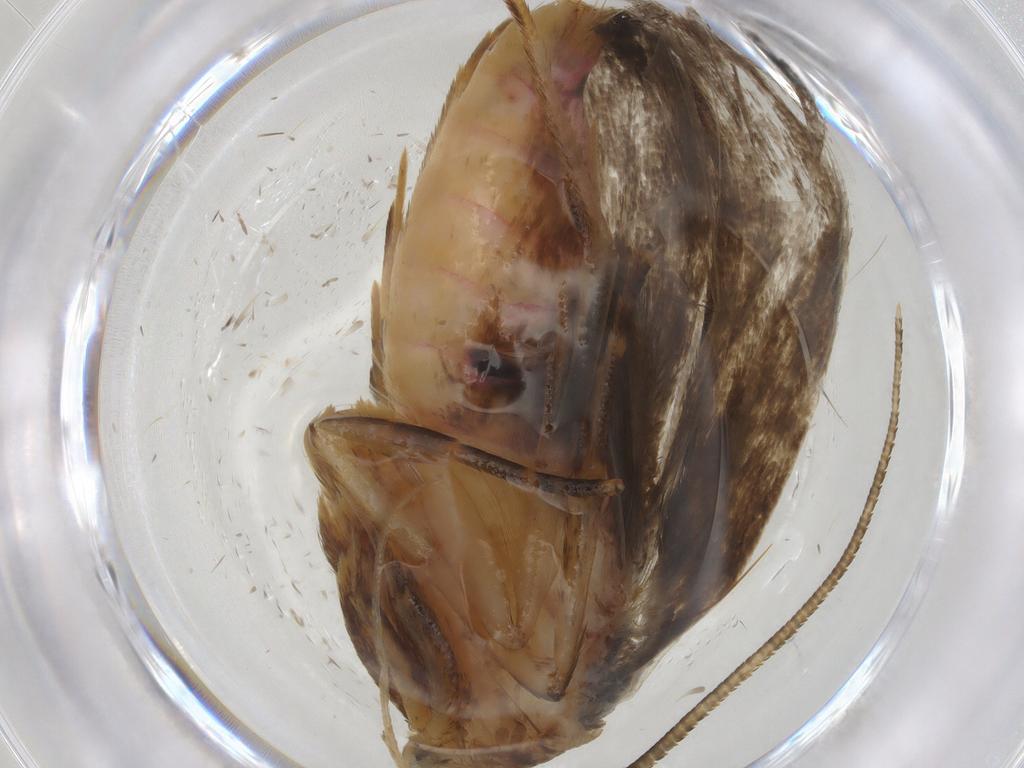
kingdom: Animalia
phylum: Arthropoda
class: Insecta
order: Lepidoptera
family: Autostichidae
